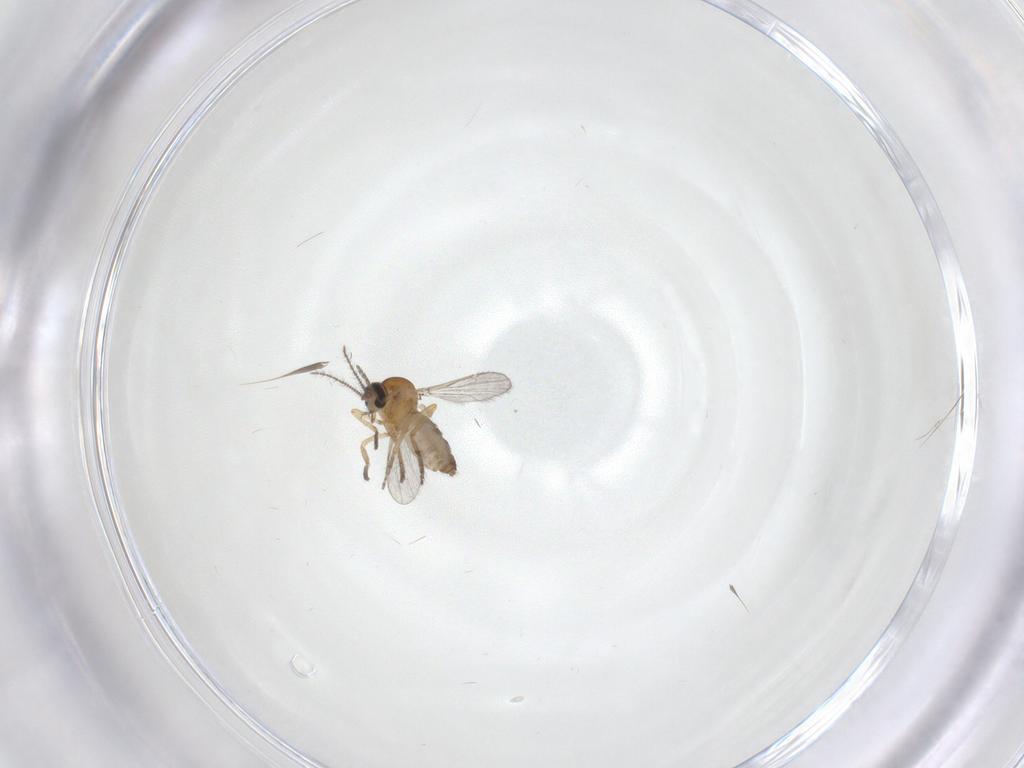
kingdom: Animalia
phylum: Arthropoda
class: Insecta
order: Diptera
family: Ceratopogonidae
